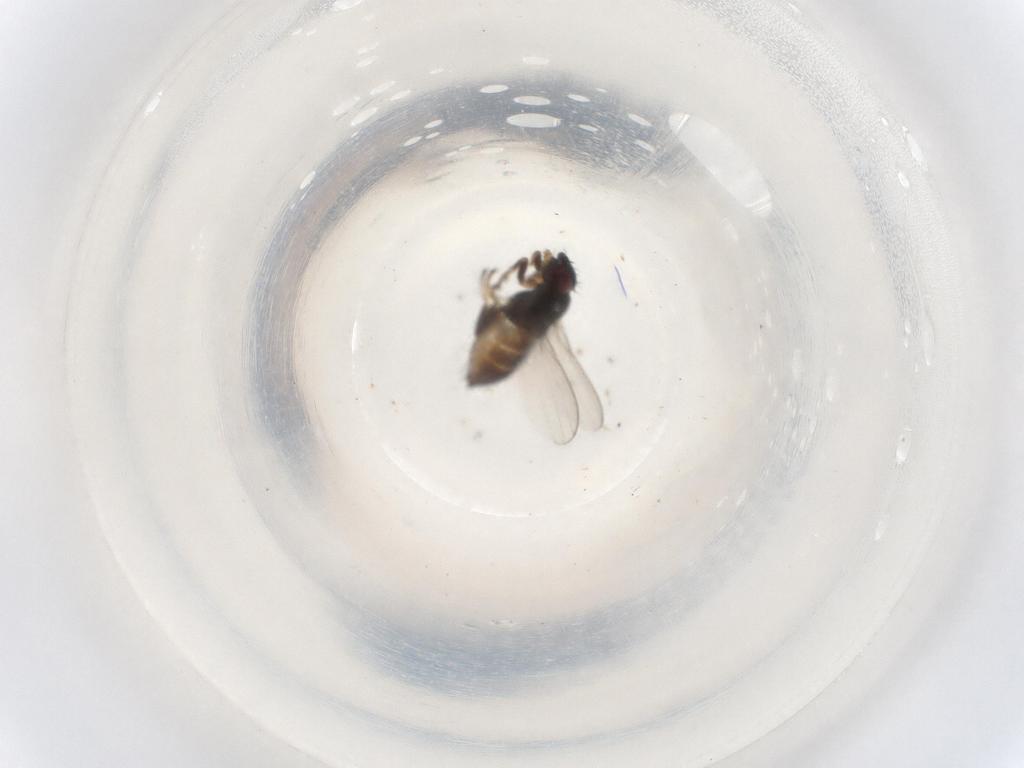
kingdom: Animalia
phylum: Arthropoda
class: Insecta
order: Diptera
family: Milichiidae
